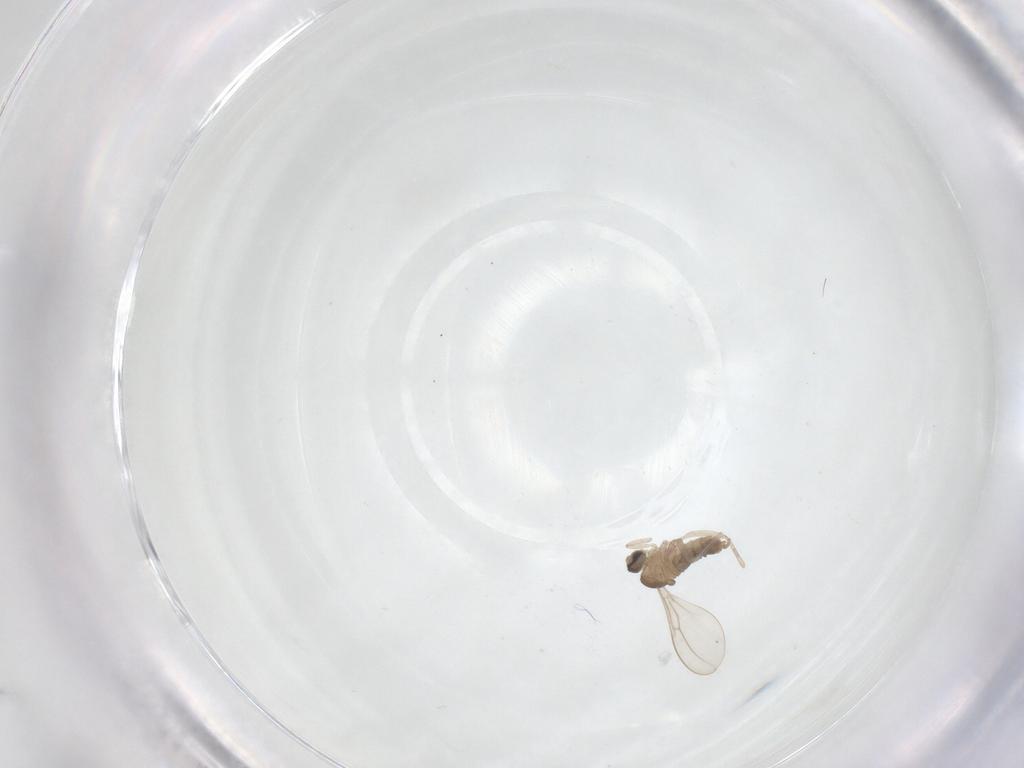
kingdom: Animalia
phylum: Arthropoda
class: Insecta
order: Diptera
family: Cecidomyiidae
